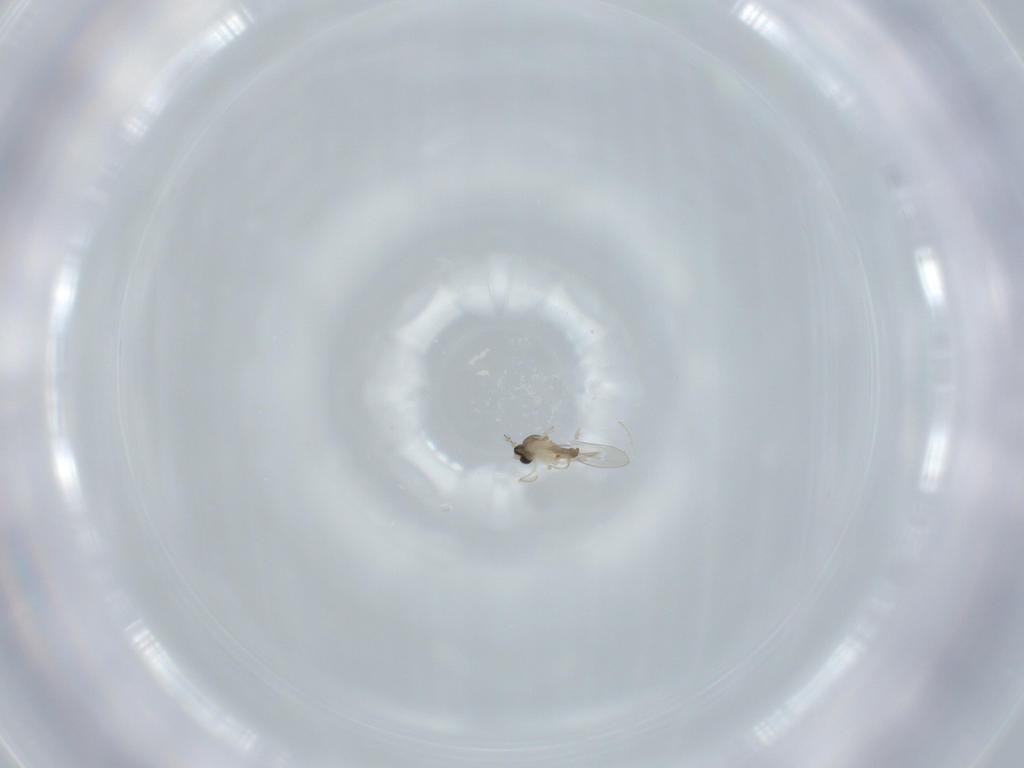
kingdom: Animalia
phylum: Arthropoda
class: Insecta
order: Diptera
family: Cecidomyiidae
